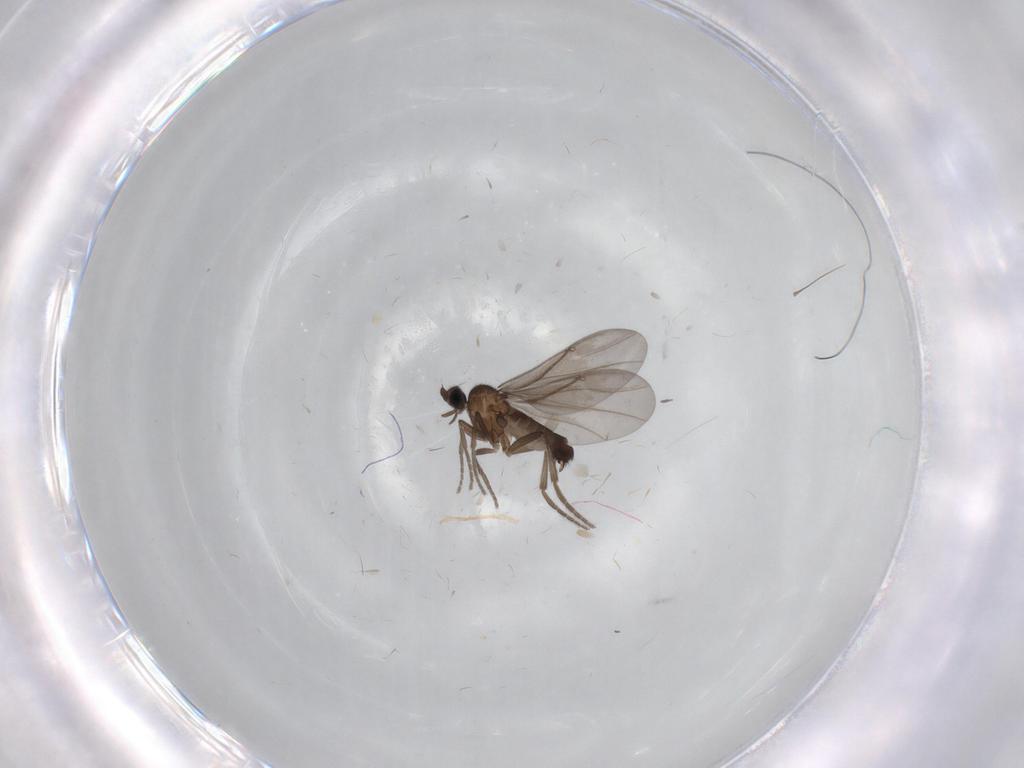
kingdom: Animalia
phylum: Arthropoda
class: Insecta
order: Diptera
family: Phoridae
